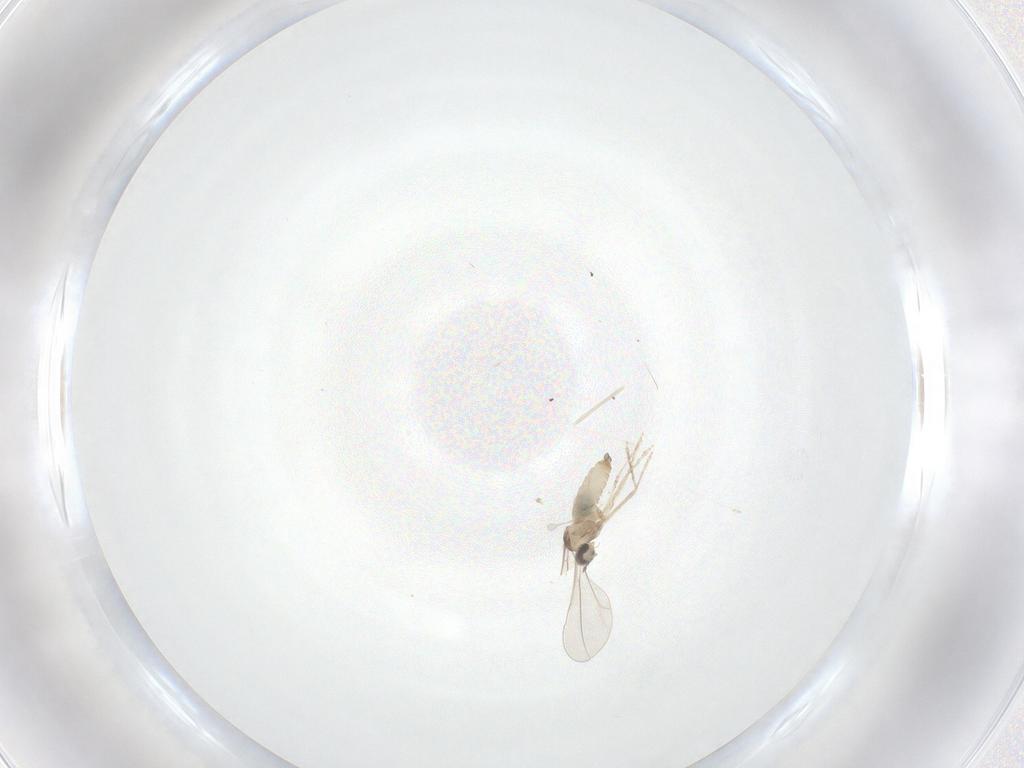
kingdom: Animalia
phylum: Arthropoda
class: Insecta
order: Diptera
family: Cecidomyiidae
